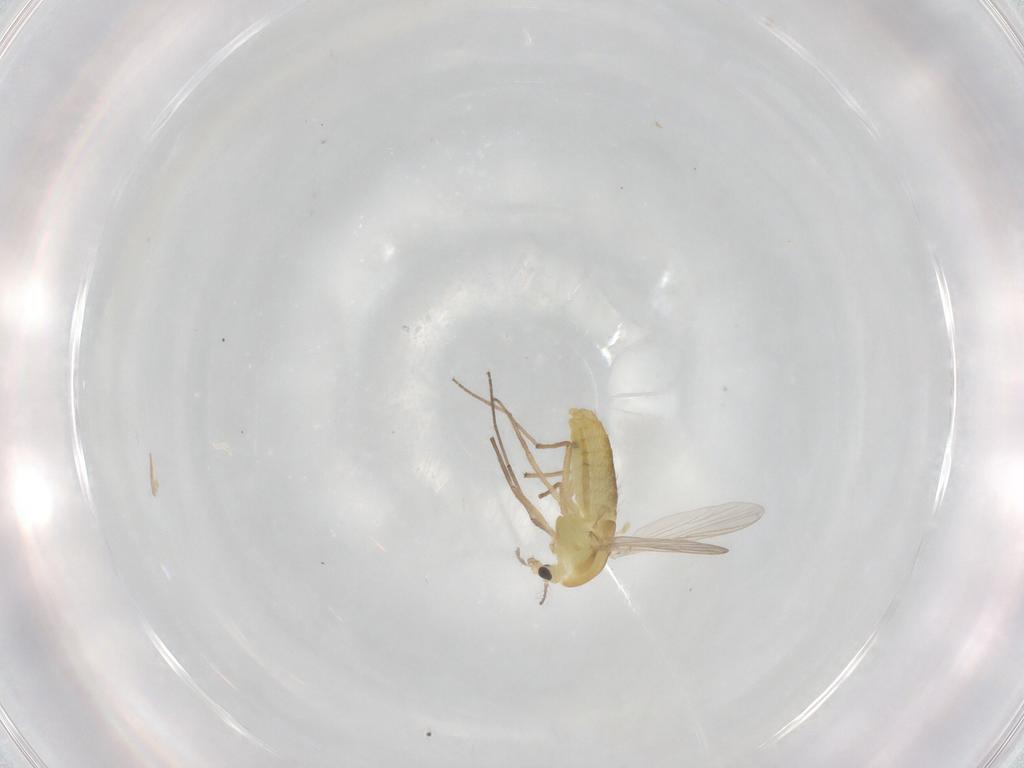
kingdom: Animalia
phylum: Arthropoda
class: Insecta
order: Diptera
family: Chironomidae
